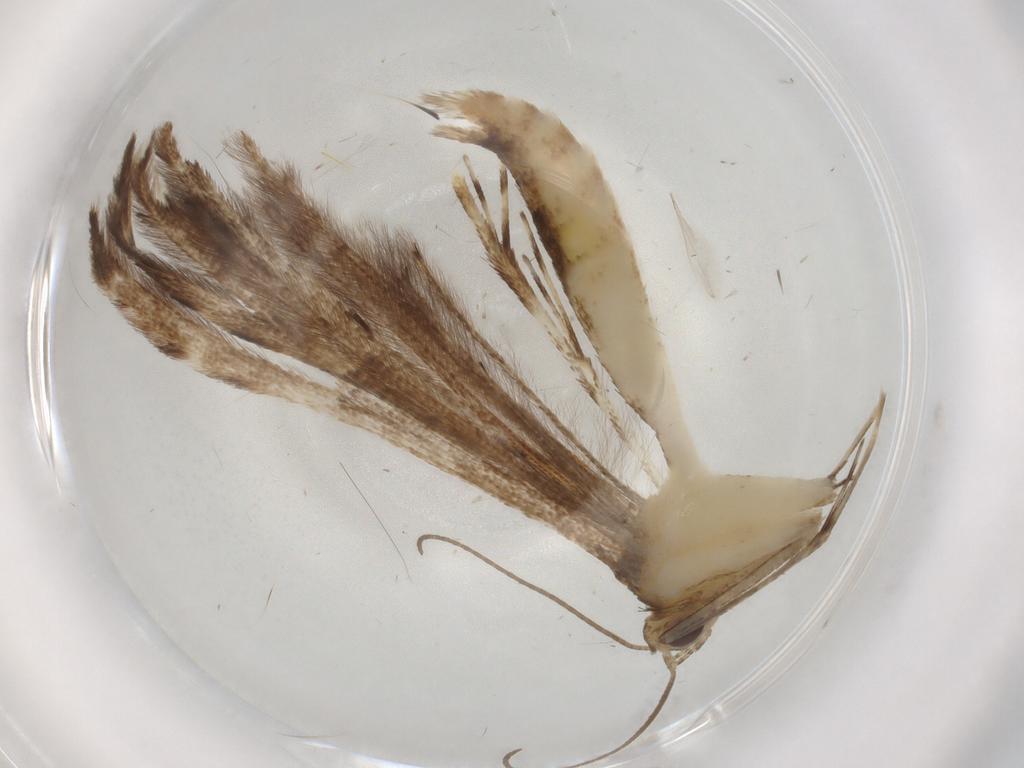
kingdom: Animalia
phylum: Arthropoda
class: Insecta
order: Lepidoptera
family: Pterophoridae
